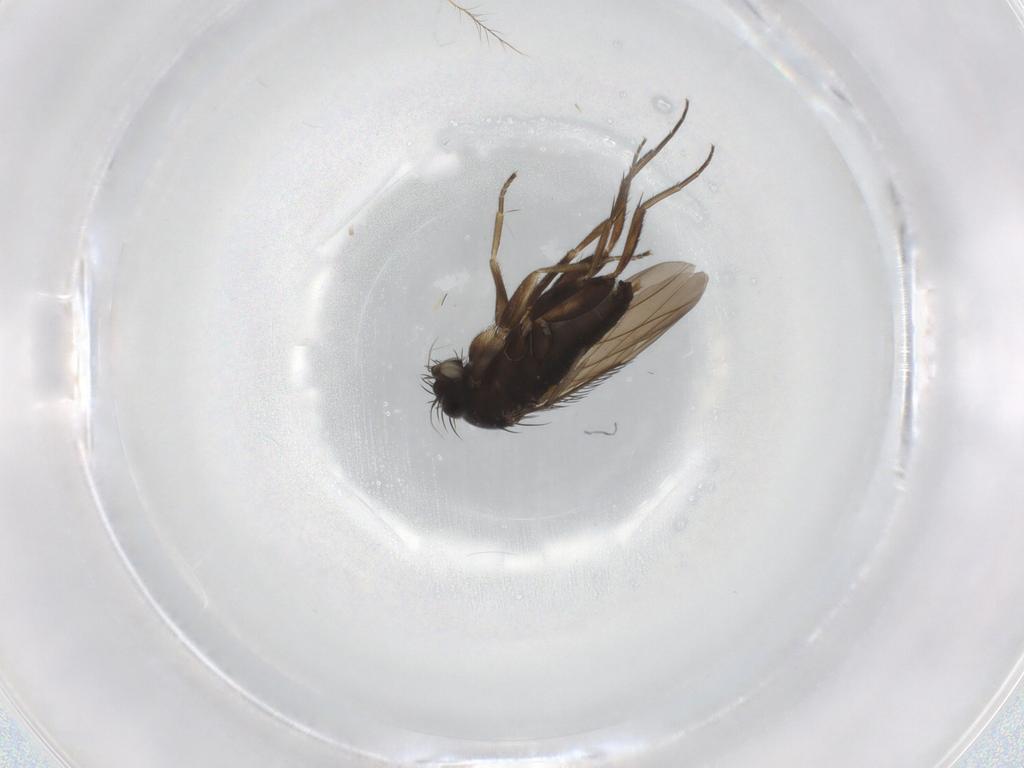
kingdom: Animalia
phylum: Arthropoda
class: Insecta
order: Diptera
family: Phoridae
